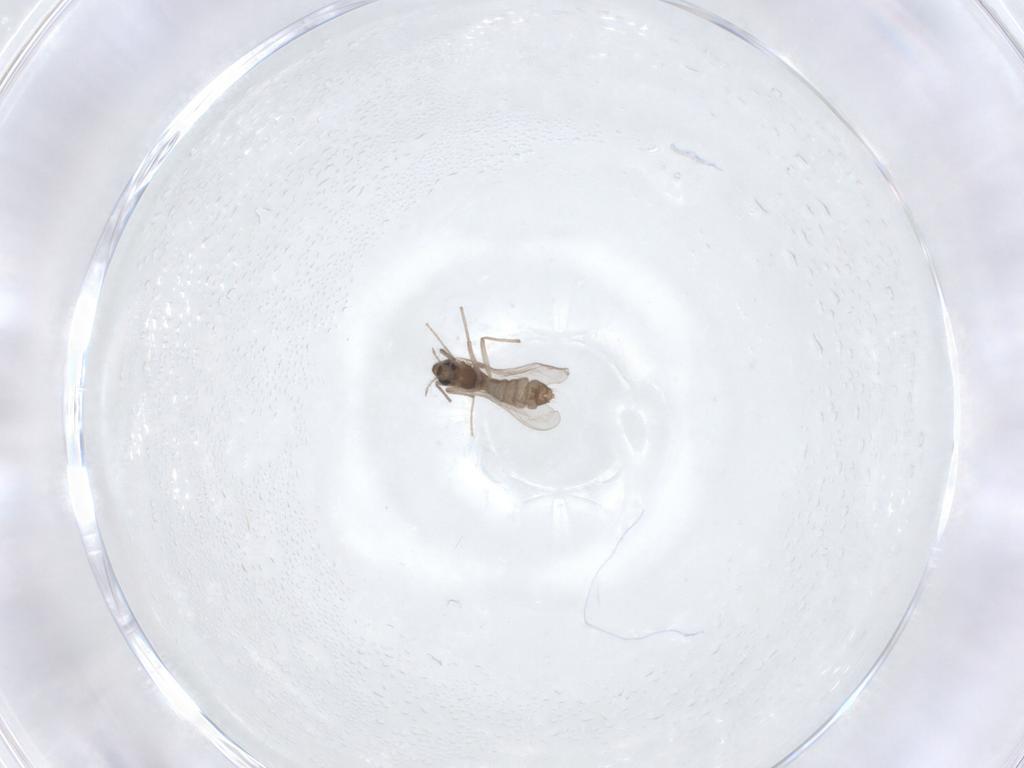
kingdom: Animalia
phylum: Arthropoda
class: Insecta
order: Diptera
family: Chironomidae
